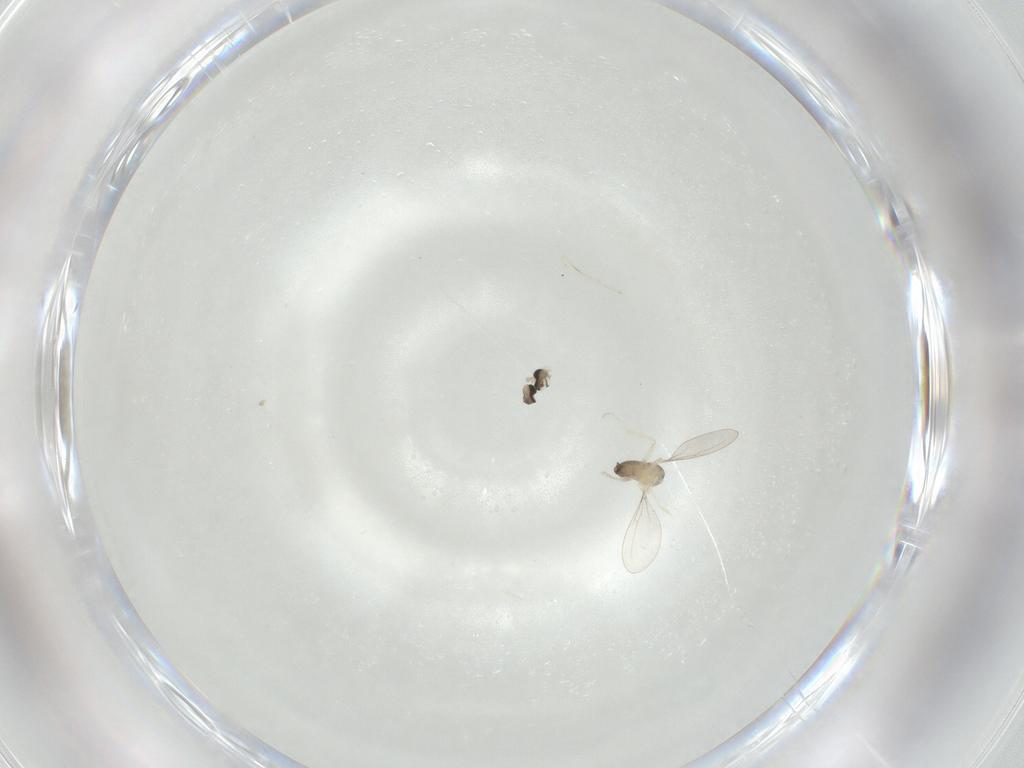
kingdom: Animalia
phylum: Arthropoda
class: Insecta
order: Diptera
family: Cecidomyiidae
